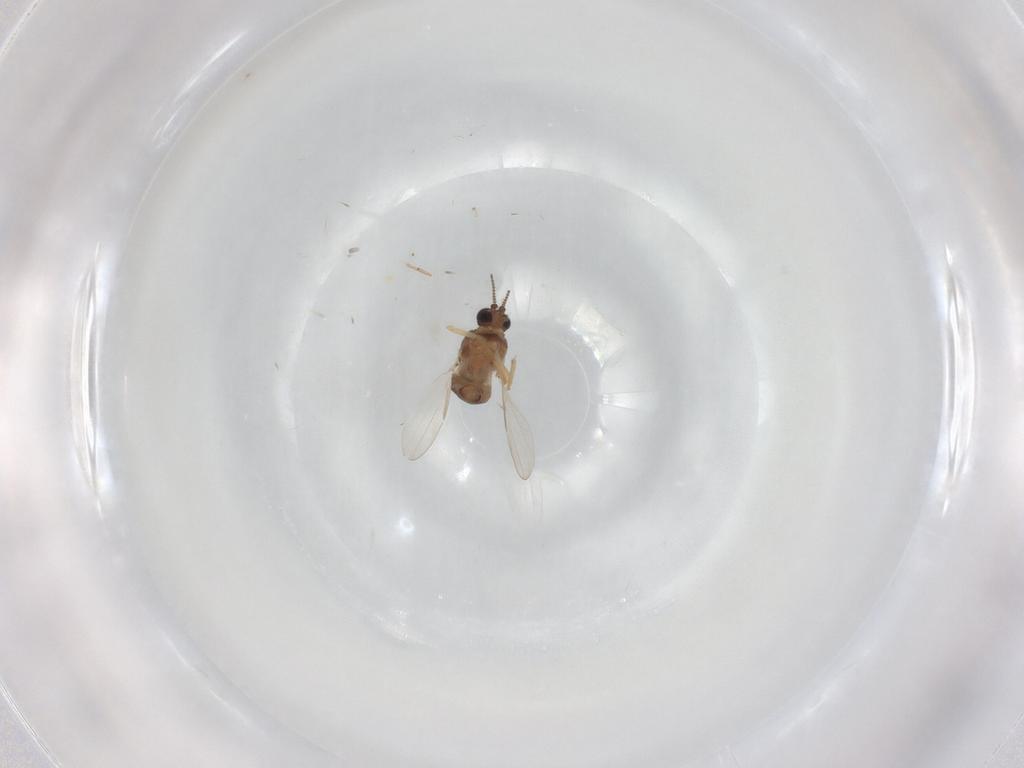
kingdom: Animalia
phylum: Arthropoda
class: Insecta
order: Diptera
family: Ceratopogonidae
